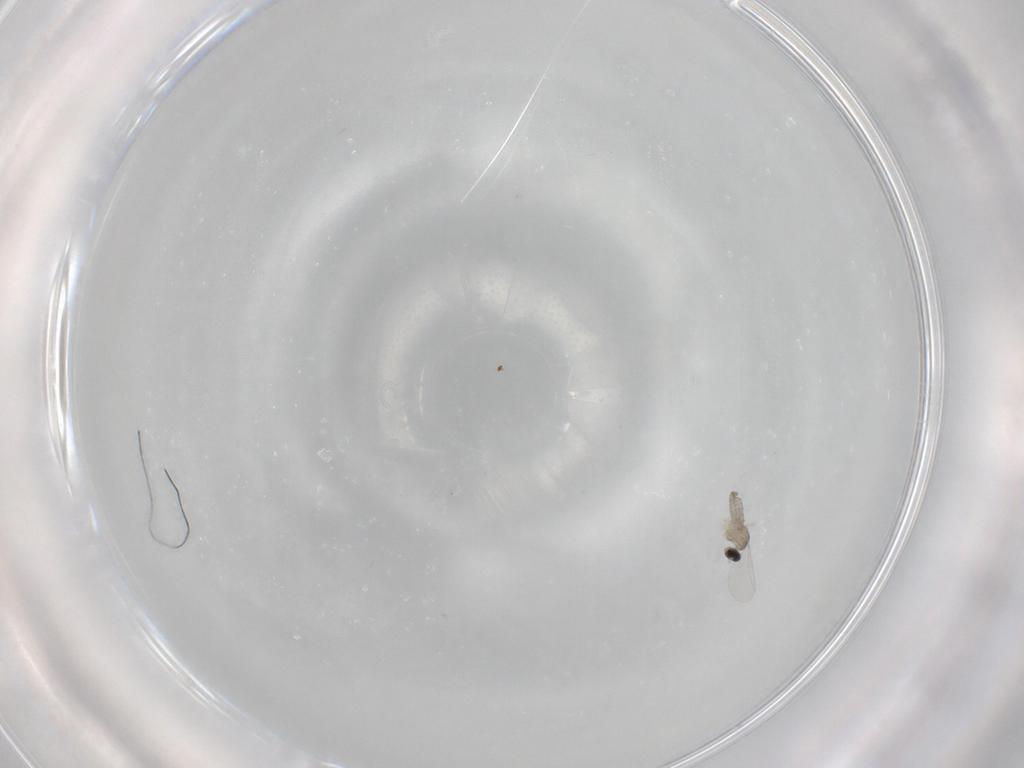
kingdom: Animalia
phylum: Arthropoda
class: Insecta
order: Diptera
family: Cecidomyiidae
